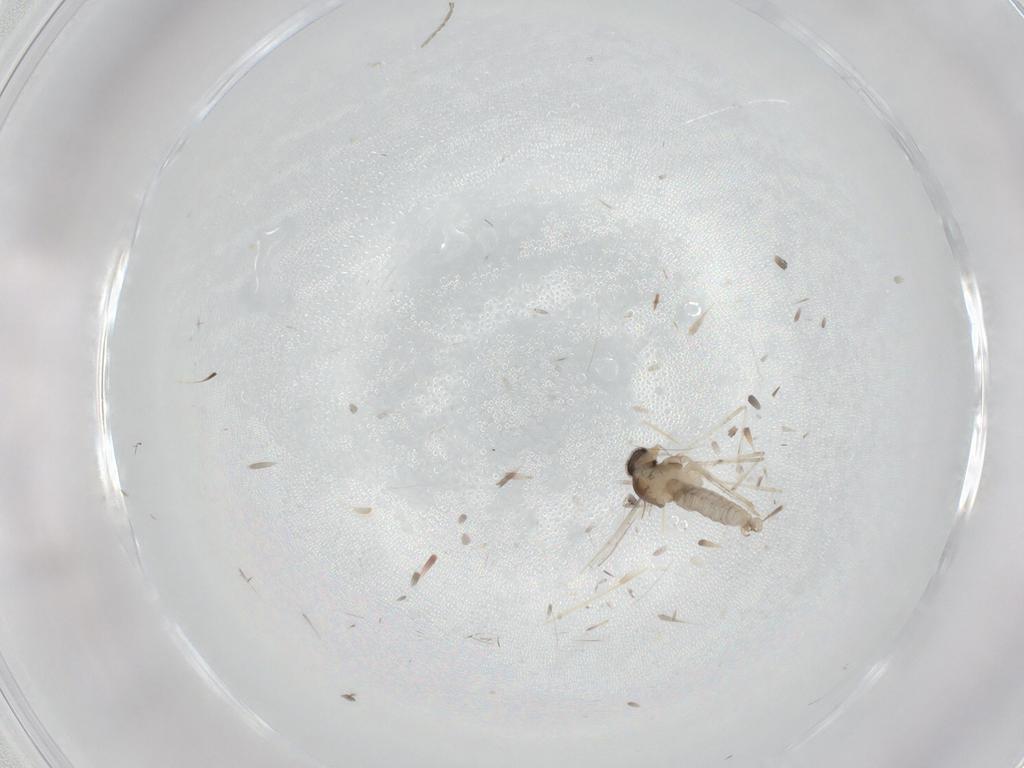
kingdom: Animalia
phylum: Arthropoda
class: Insecta
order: Diptera
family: Cecidomyiidae
